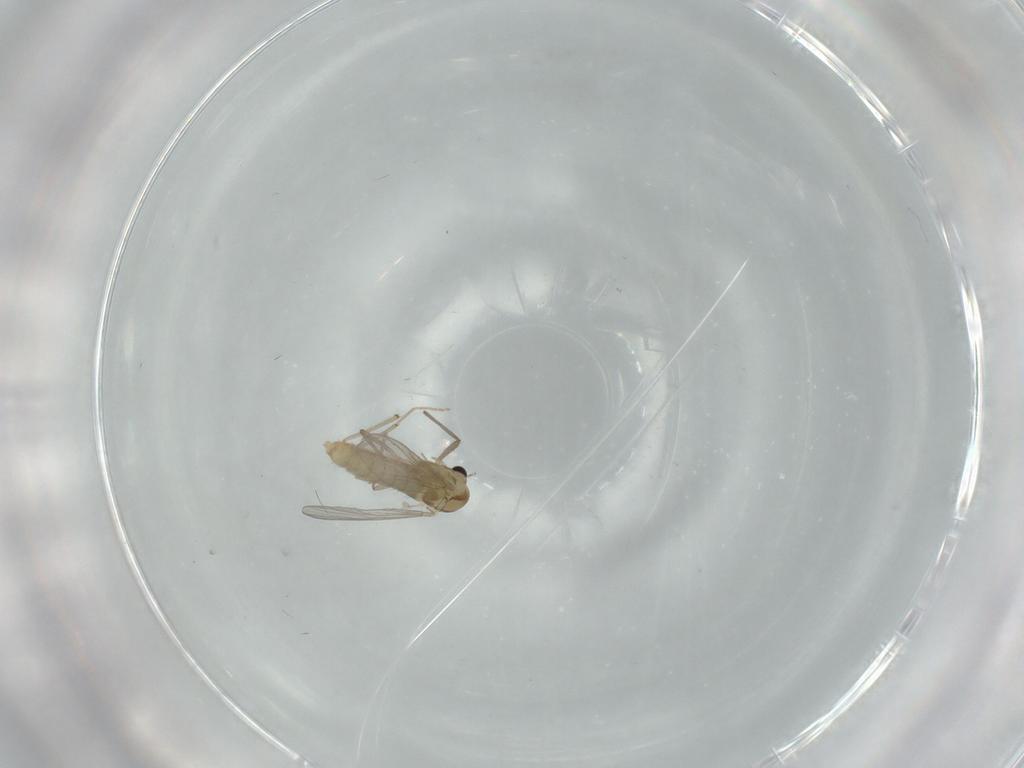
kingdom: Animalia
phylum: Arthropoda
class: Insecta
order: Diptera
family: Chironomidae
